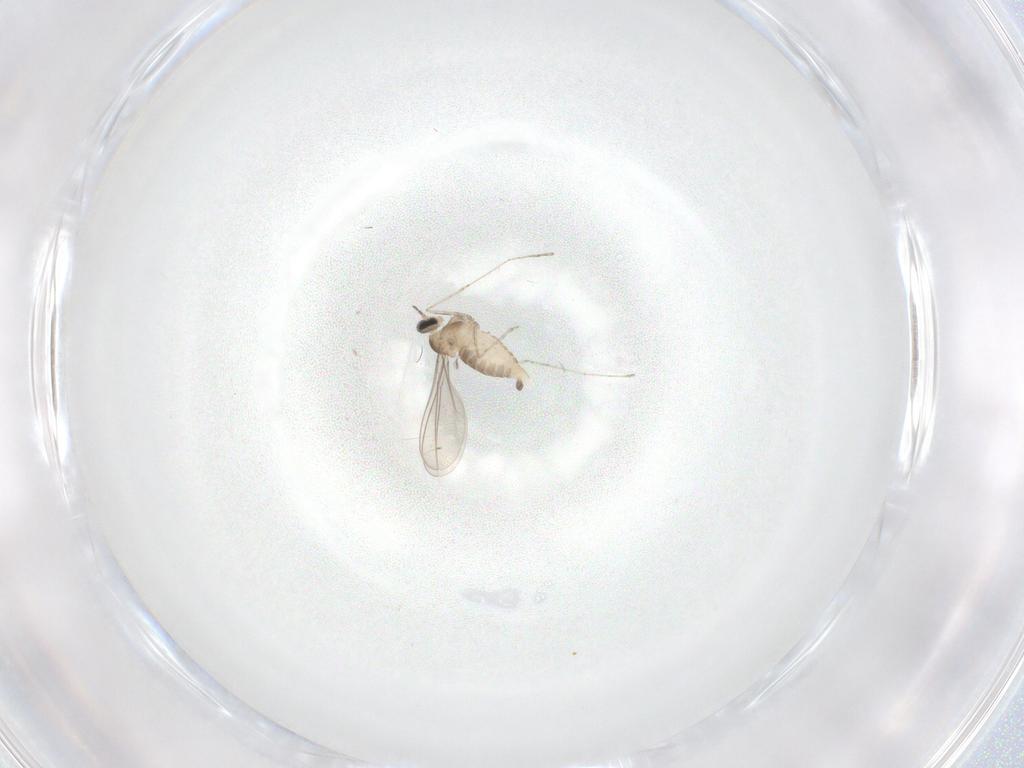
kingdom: Animalia
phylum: Arthropoda
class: Insecta
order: Diptera
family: Cecidomyiidae
